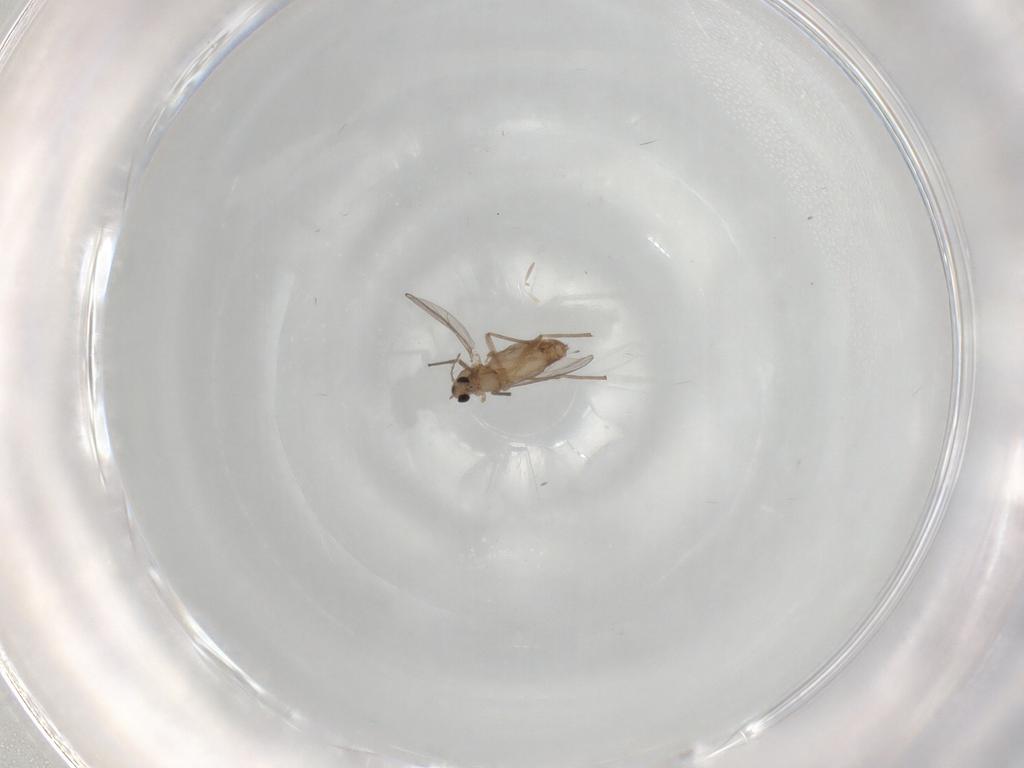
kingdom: Animalia
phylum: Arthropoda
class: Insecta
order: Diptera
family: Chironomidae
